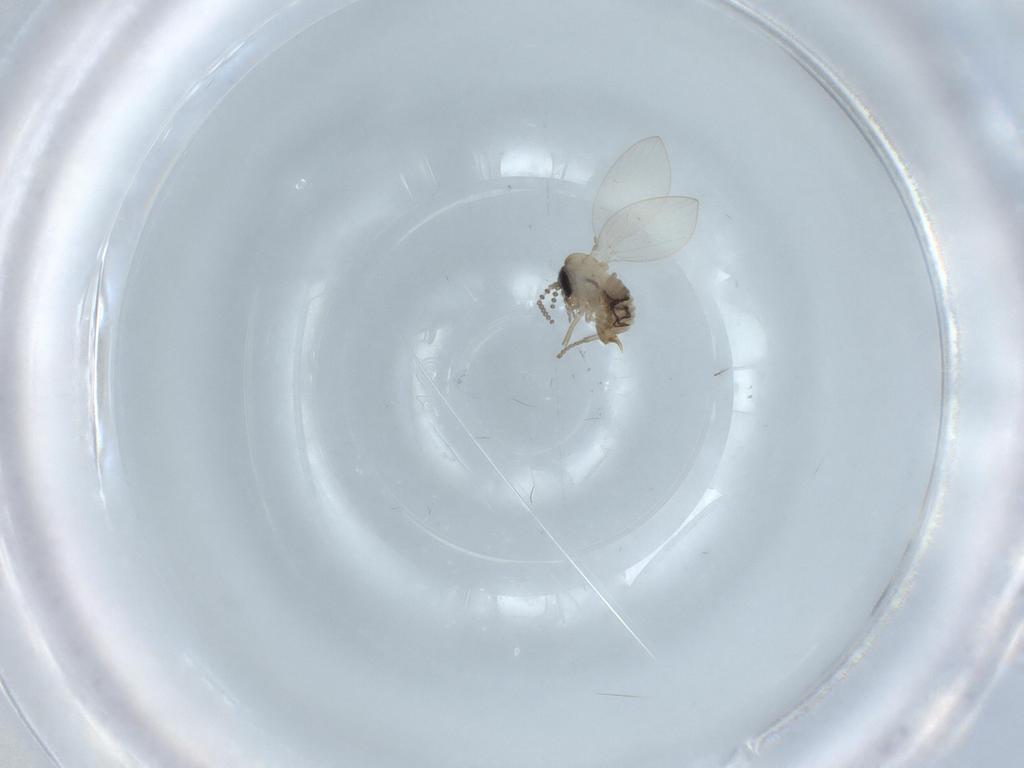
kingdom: Animalia
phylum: Arthropoda
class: Insecta
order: Diptera
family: Psychodidae
